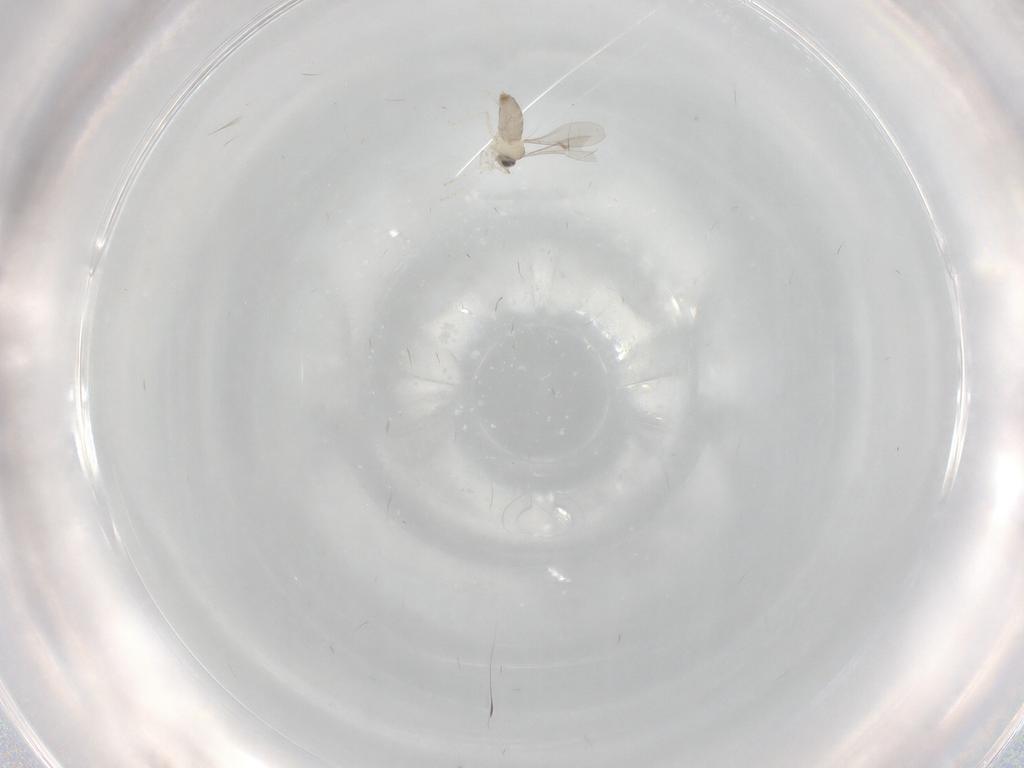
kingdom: Animalia
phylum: Arthropoda
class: Insecta
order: Diptera
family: Cecidomyiidae
